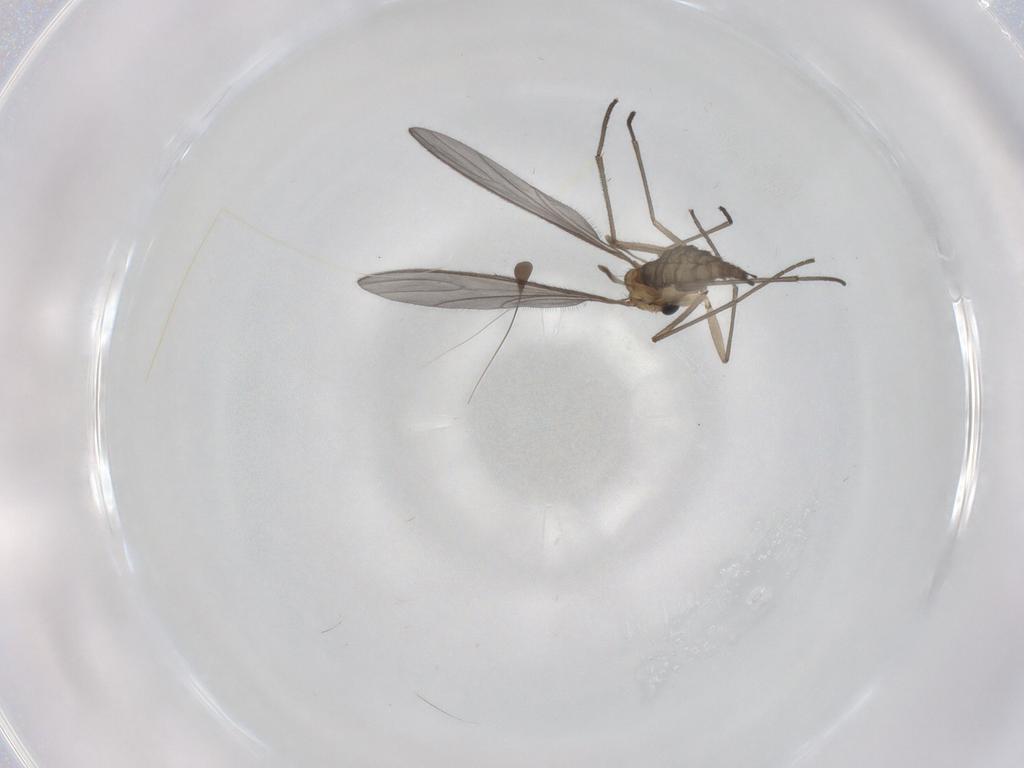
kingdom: Animalia
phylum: Arthropoda
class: Insecta
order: Diptera
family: Sciaridae
